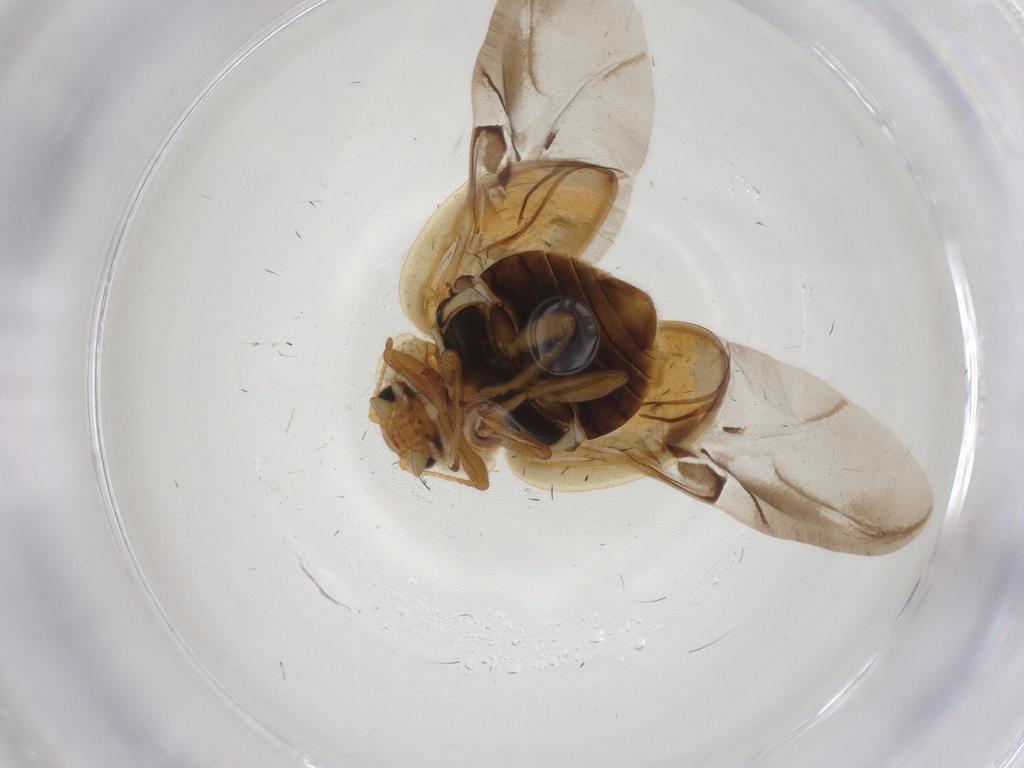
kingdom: Animalia
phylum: Arthropoda
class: Insecta
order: Coleoptera
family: Coccinellidae
